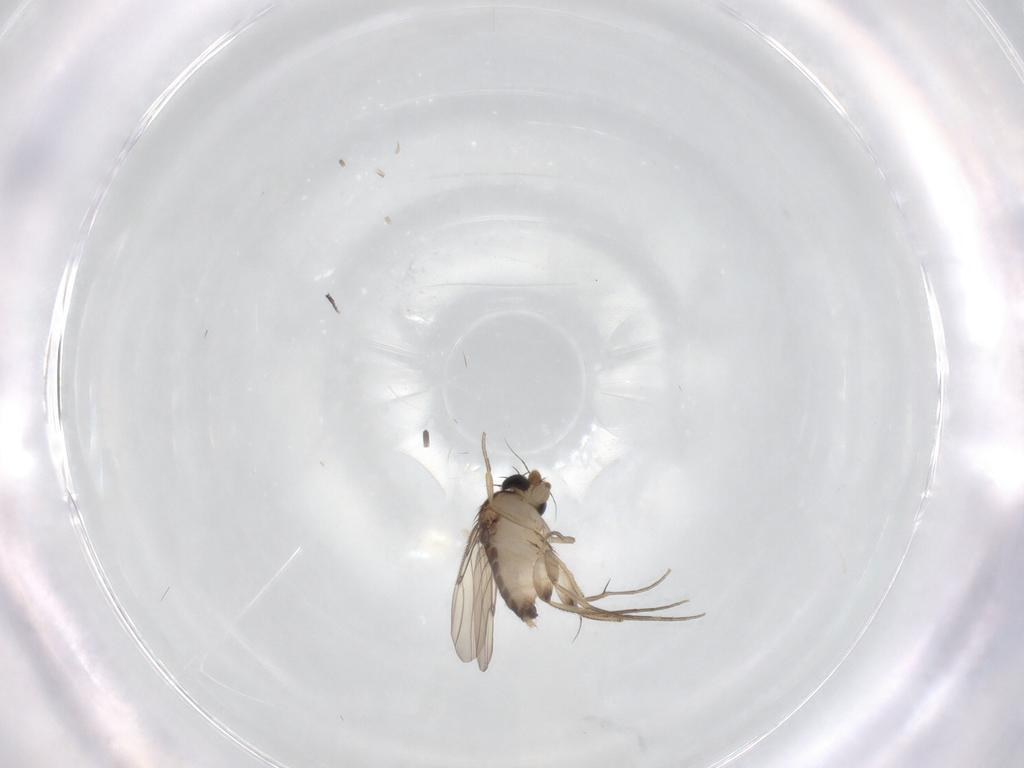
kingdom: Animalia
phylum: Arthropoda
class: Insecta
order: Diptera
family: Phoridae
